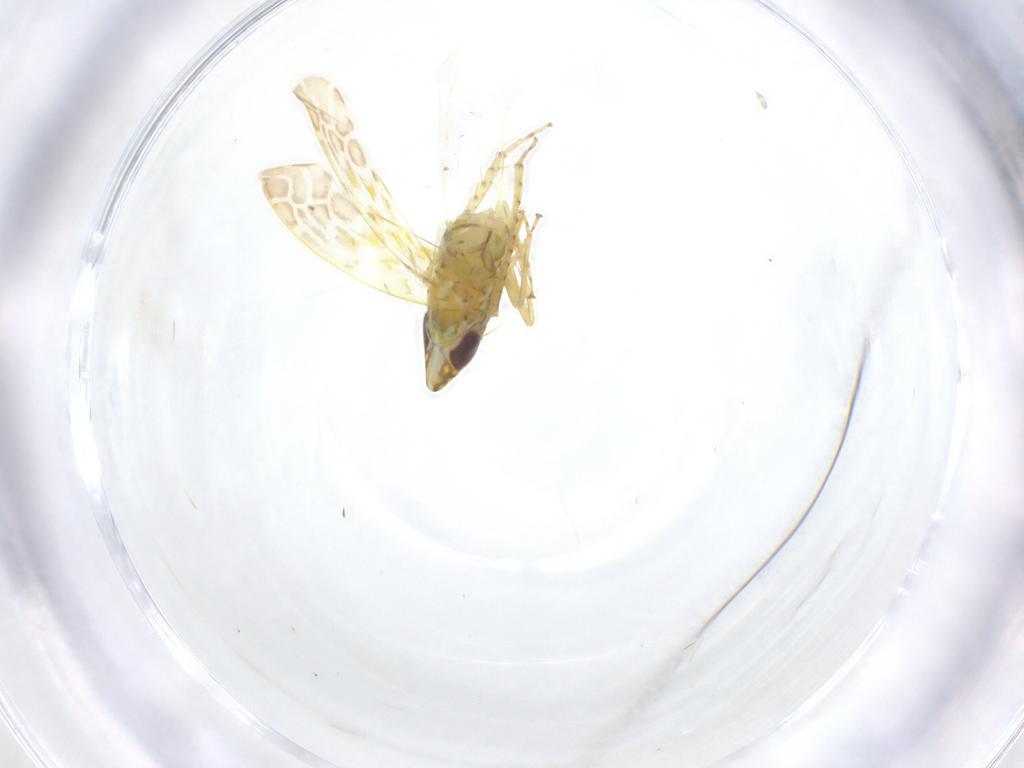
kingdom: Animalia
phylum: Arthropoda
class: Insecta
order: Hemiptera
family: Cicadellidae
